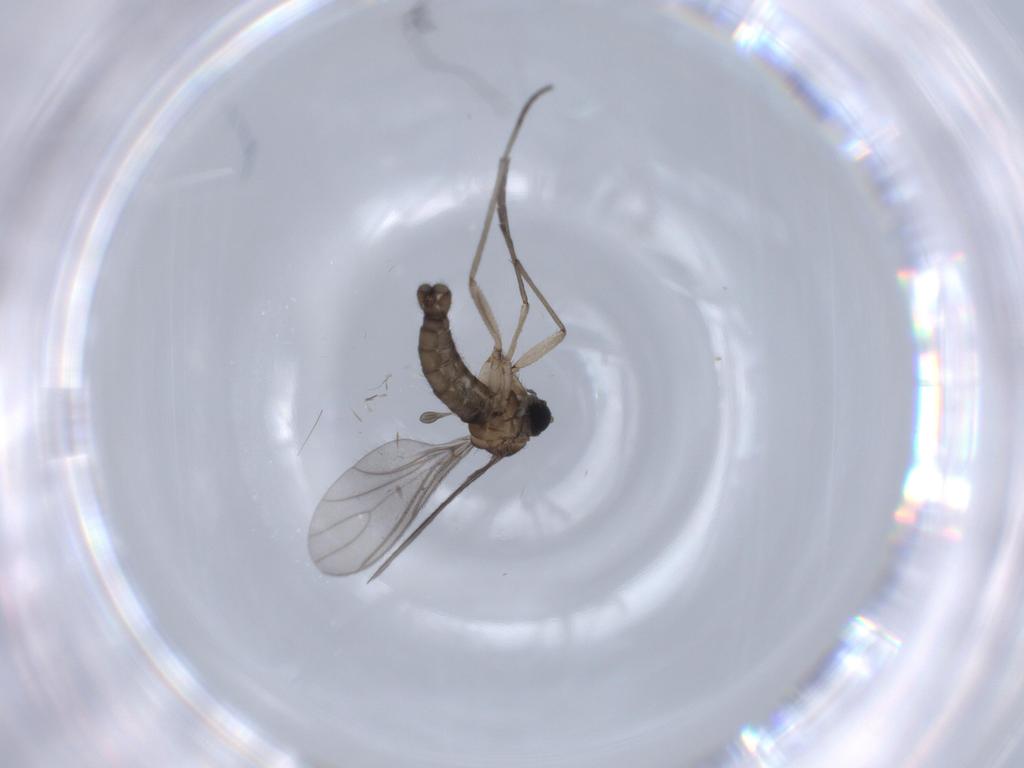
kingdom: Animalia
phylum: Arthropoda
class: Insecta
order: Diptera
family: Sciaridae
